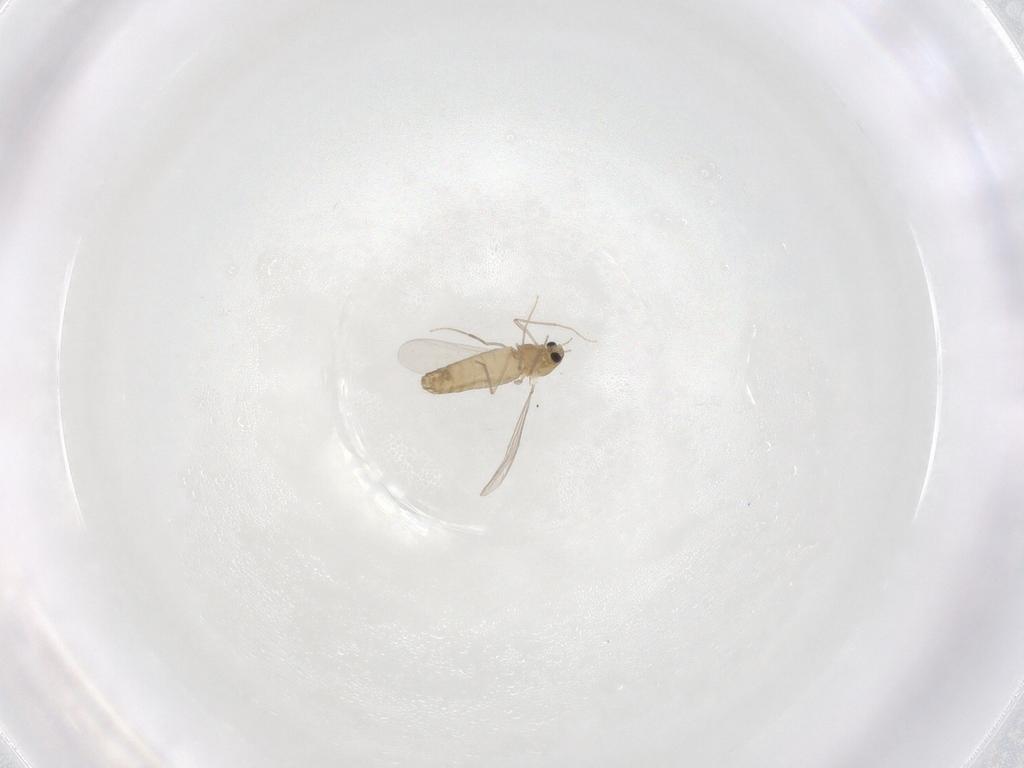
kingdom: Animalia
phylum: Arthropoda
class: Insecta
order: Diptera
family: Chironomidae
